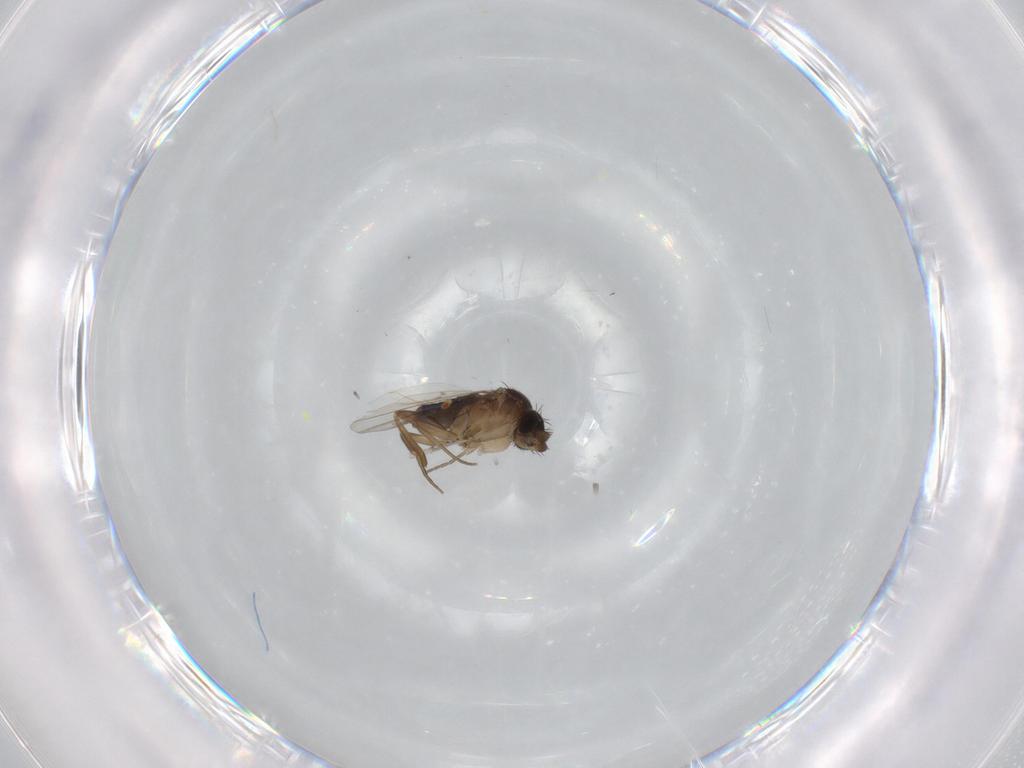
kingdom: Animalia
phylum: Arthropoda
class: Insecta
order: Diptera
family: Phoridae
